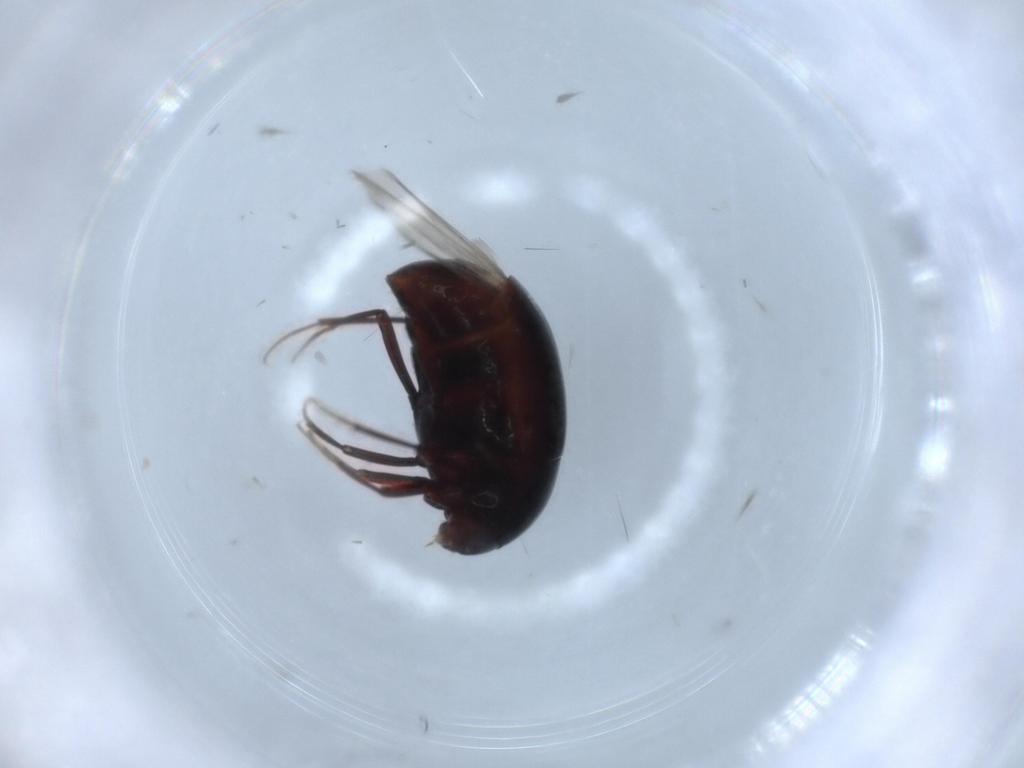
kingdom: Animalia
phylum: Arthropoda
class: Insecta
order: Coleoptera
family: Staphylinidae
